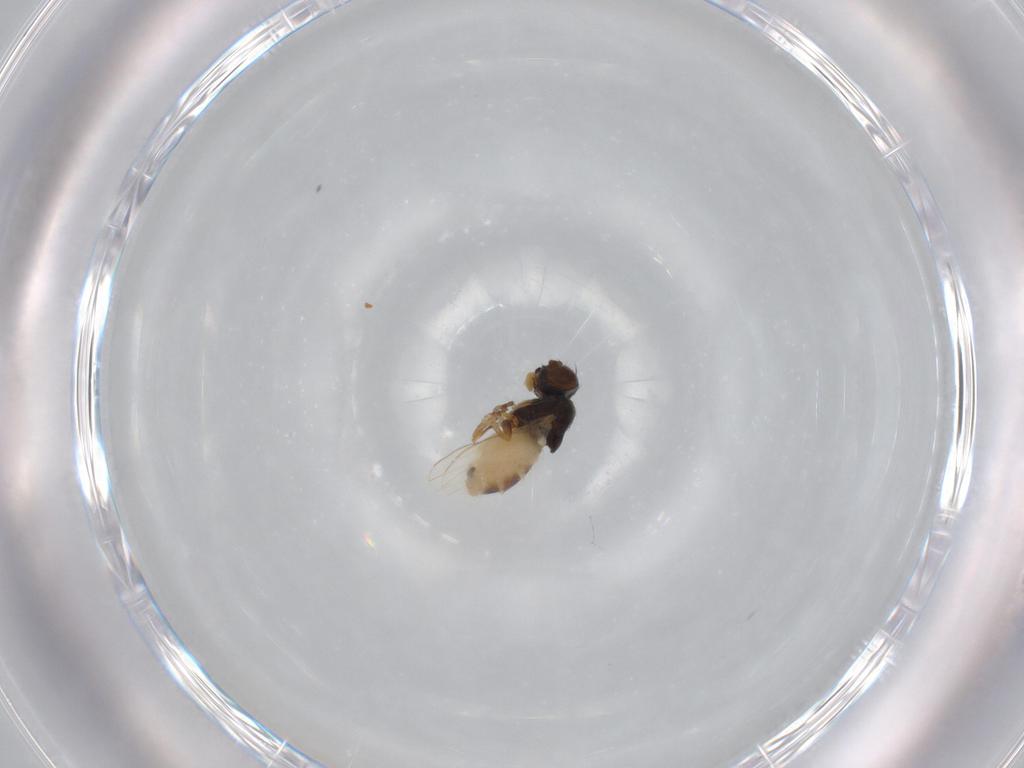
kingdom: Animalia
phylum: Arthropoda
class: Insecta
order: Diptera
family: Ephydridae
